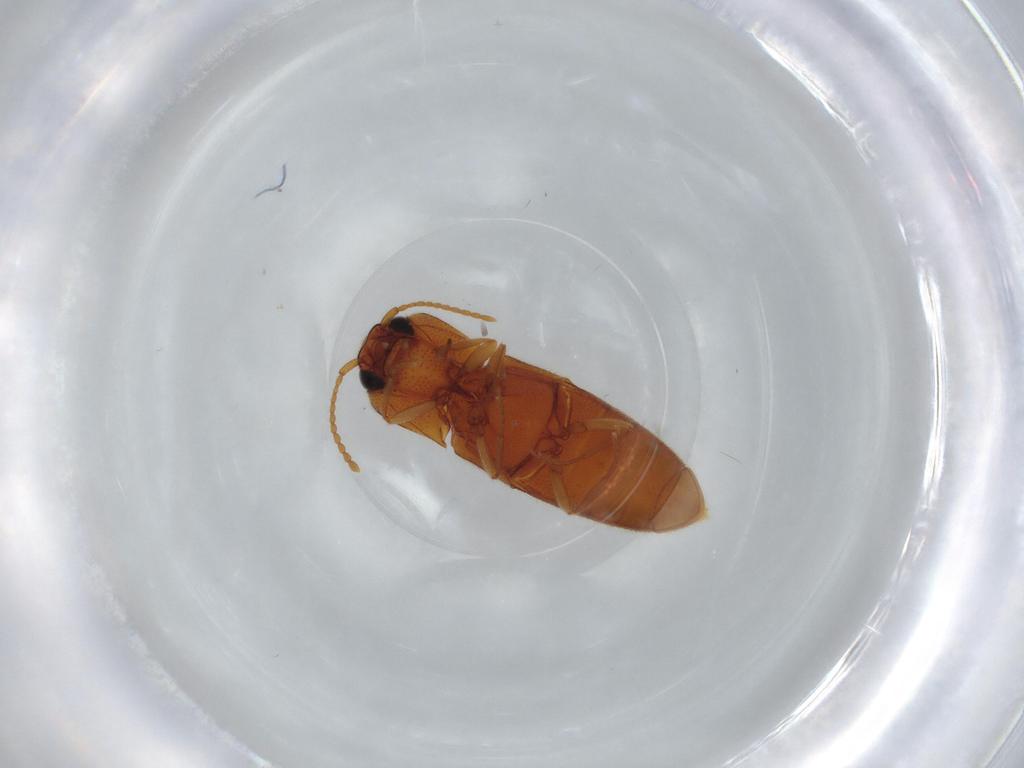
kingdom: Animalia
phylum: Arthropoda
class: Insecta
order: Coleoptera
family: Elateridae
